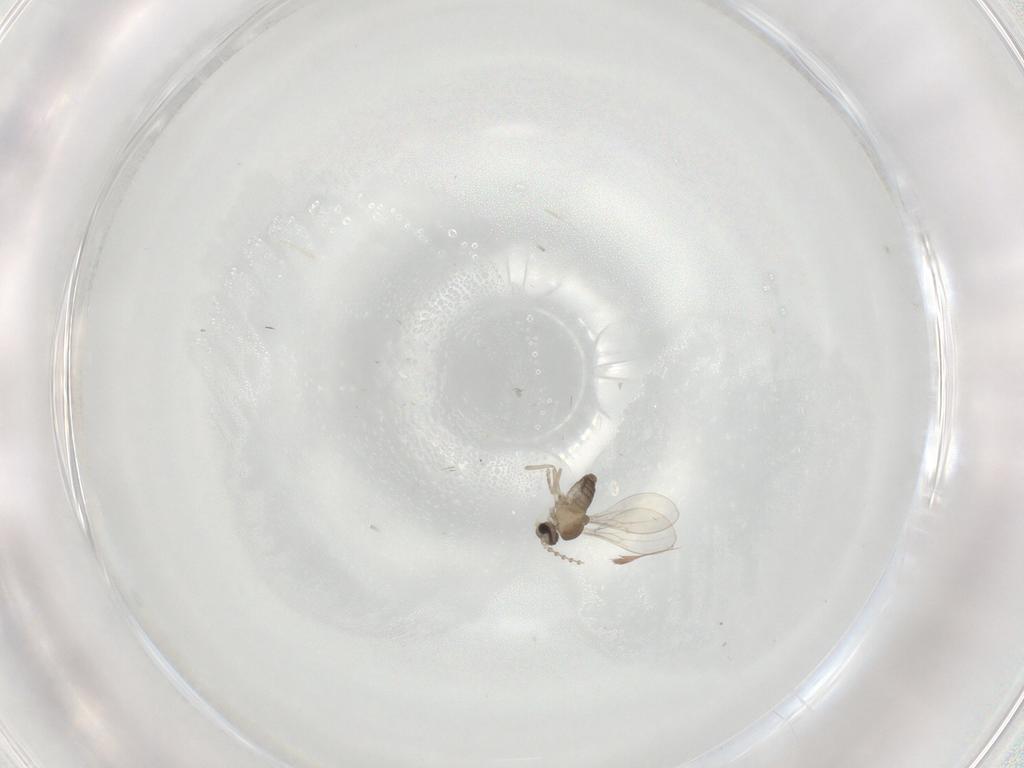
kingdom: Animalia
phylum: Arthropoda
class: Insecta
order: Diptera
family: Cecidomyiidae
